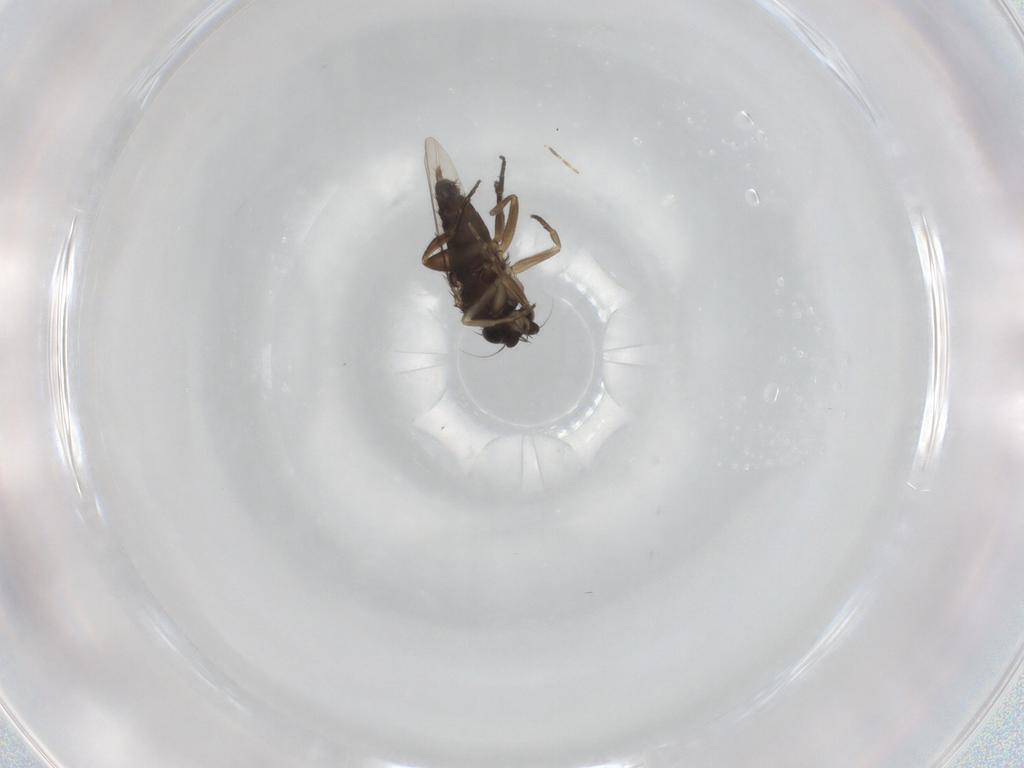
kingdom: Animalia
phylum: Arthropoda
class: Insecta
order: Diptera
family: Phoridae
